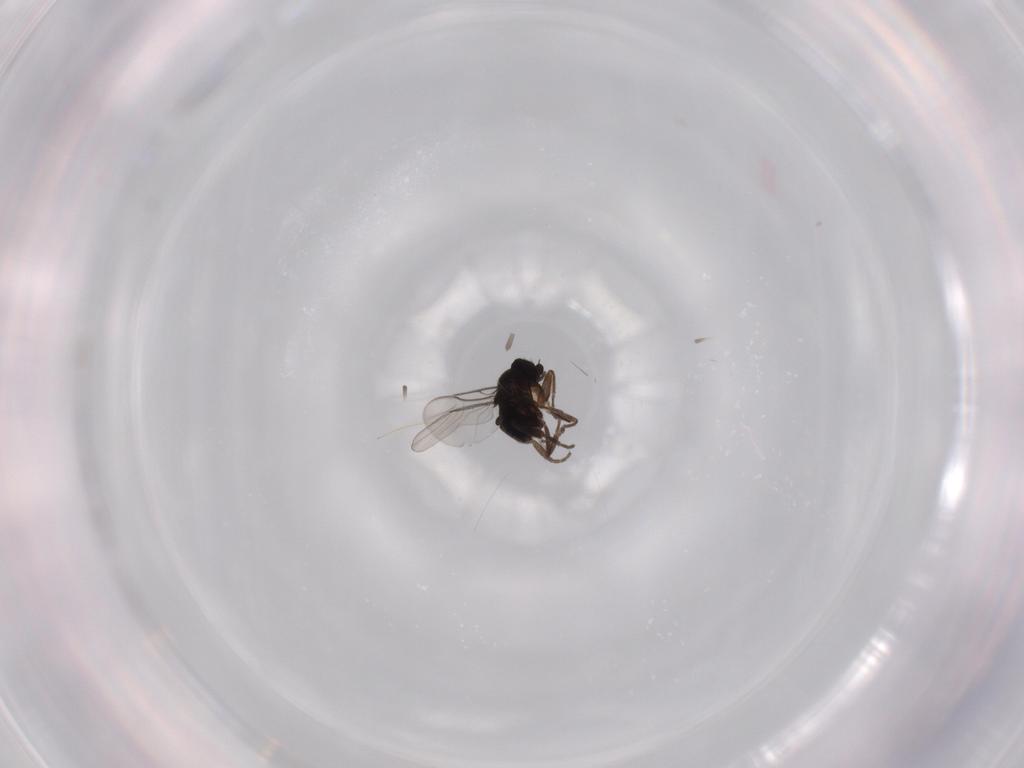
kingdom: Animalia
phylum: Arthropoda
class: Insecta
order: Diptera
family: Phoridae
